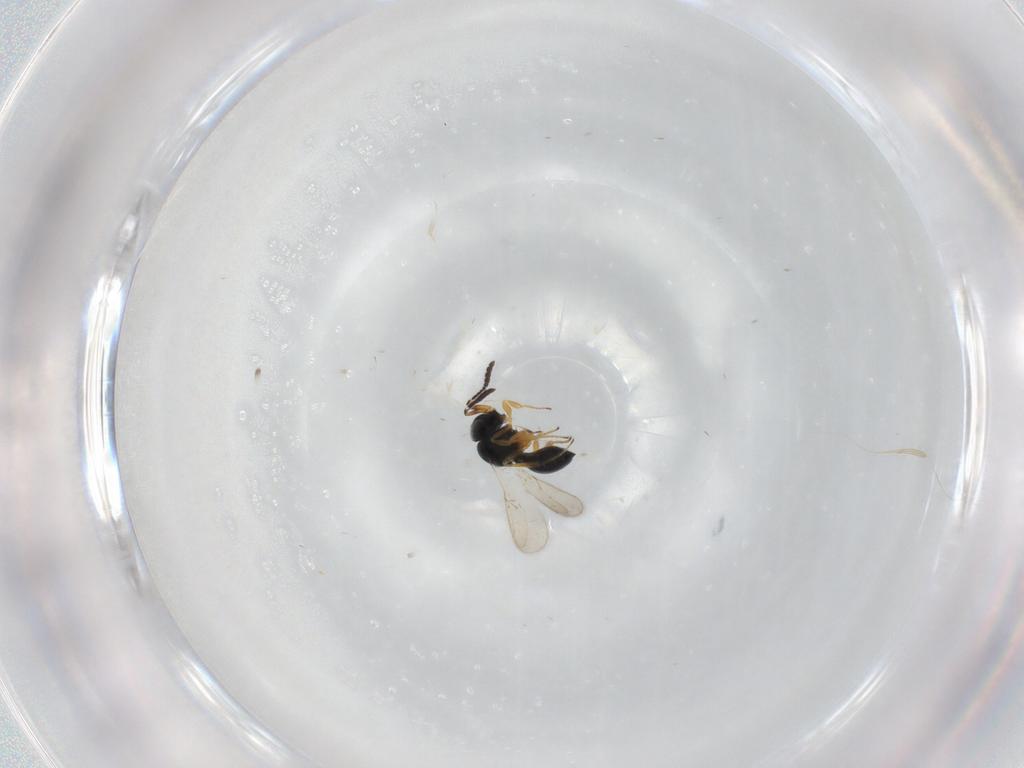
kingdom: Animalia
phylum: Arthropoda
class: Insecta
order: Hymenoptera
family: Scelionidae
